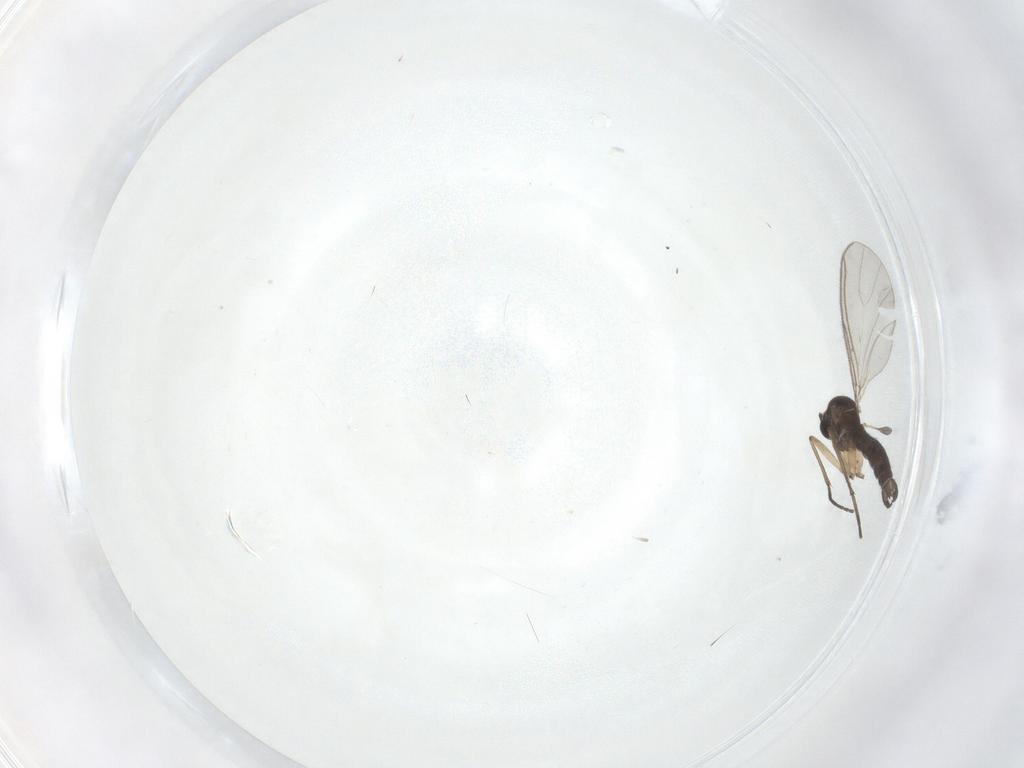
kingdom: Animalia
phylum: Arthropoda
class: Insecta
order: Diptera
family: Sciaridae
